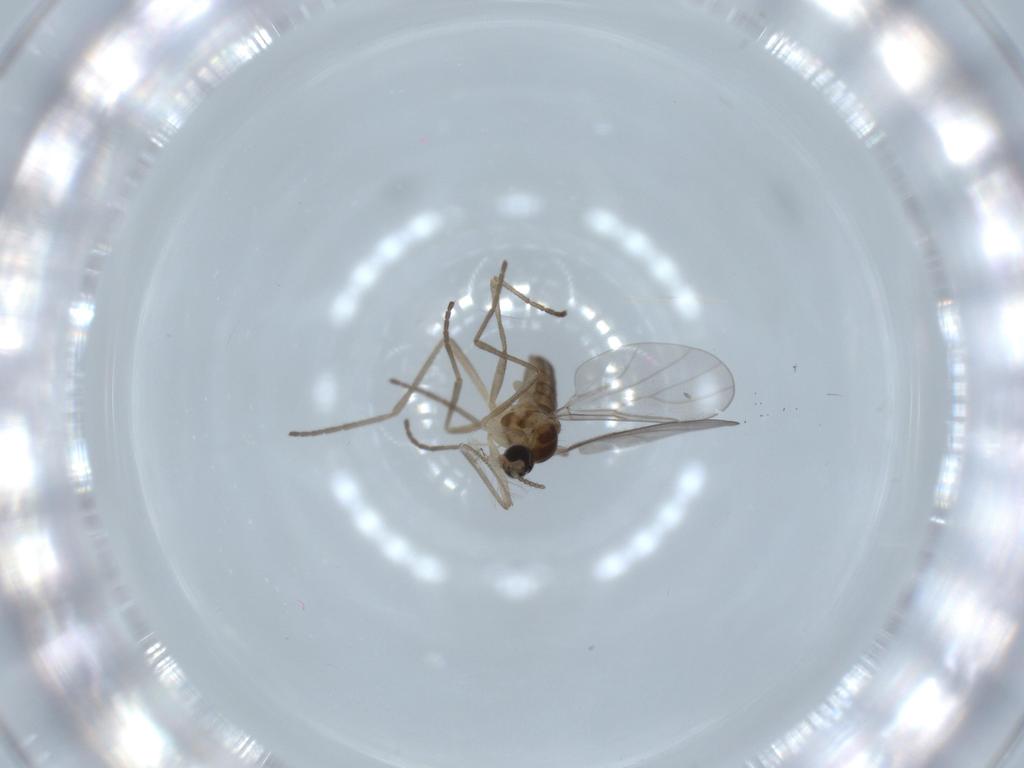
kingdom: Animalia
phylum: Arthropoda
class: Insecta
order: Diptera
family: Cecidomyiidae
